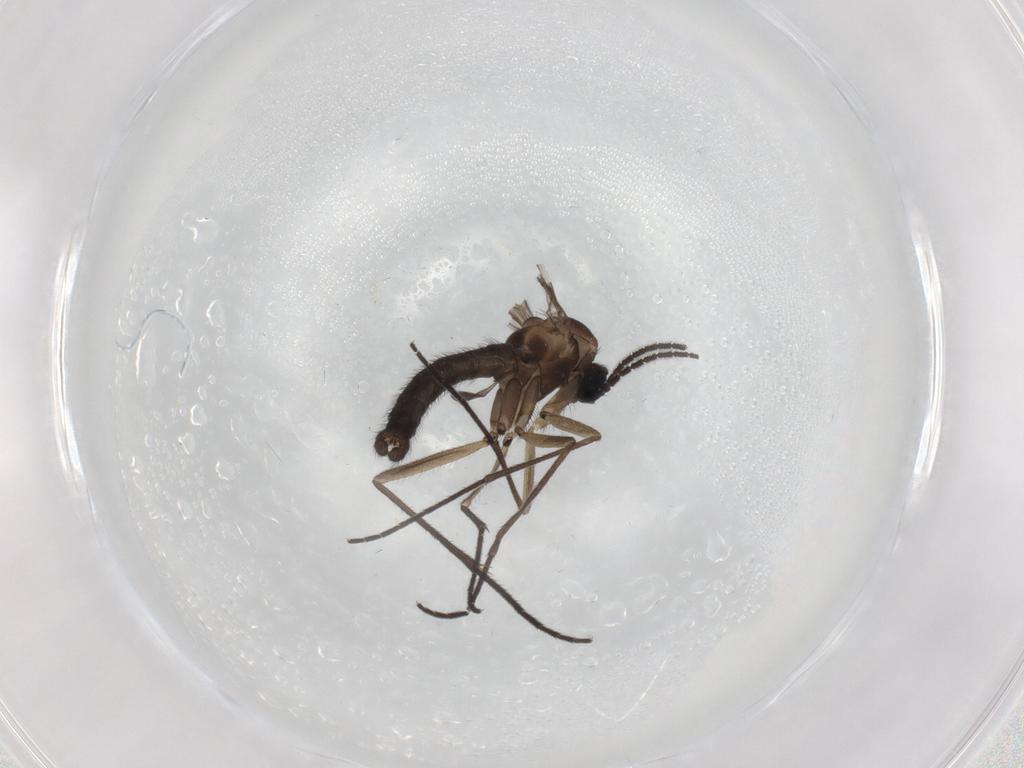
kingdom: Animalia
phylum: Arthropoda
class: Insecta
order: Diptera
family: Sciaridae
